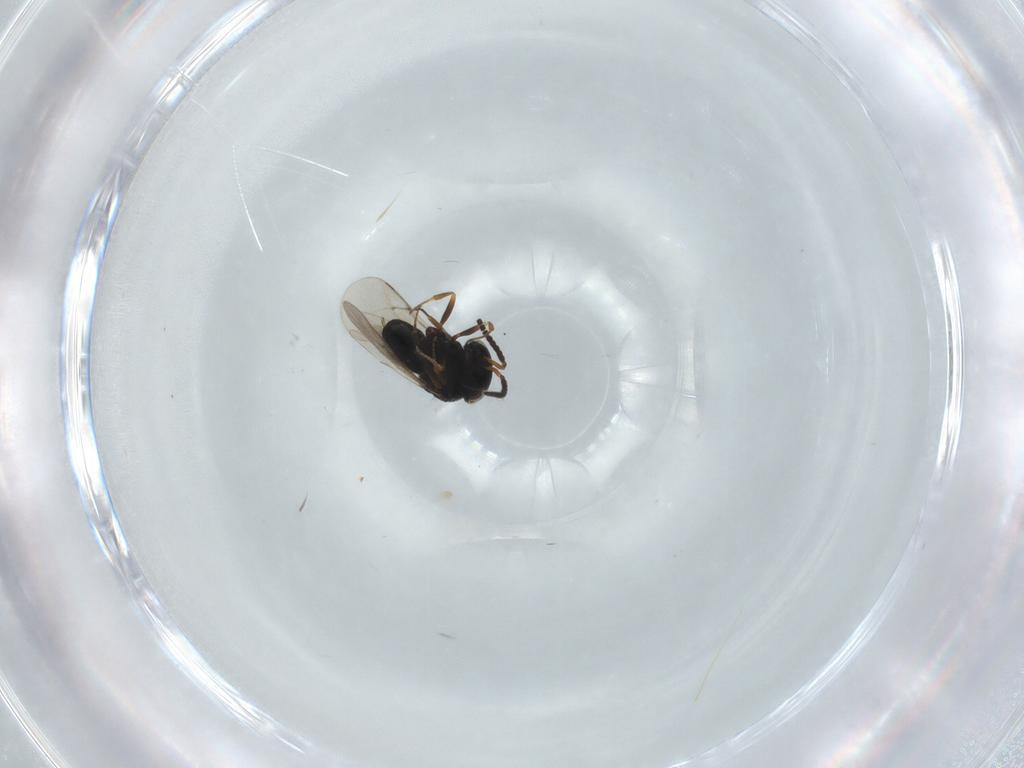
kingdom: Animalia
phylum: Arthropoda
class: Insecta
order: Hymenoptera
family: Scelionidae
